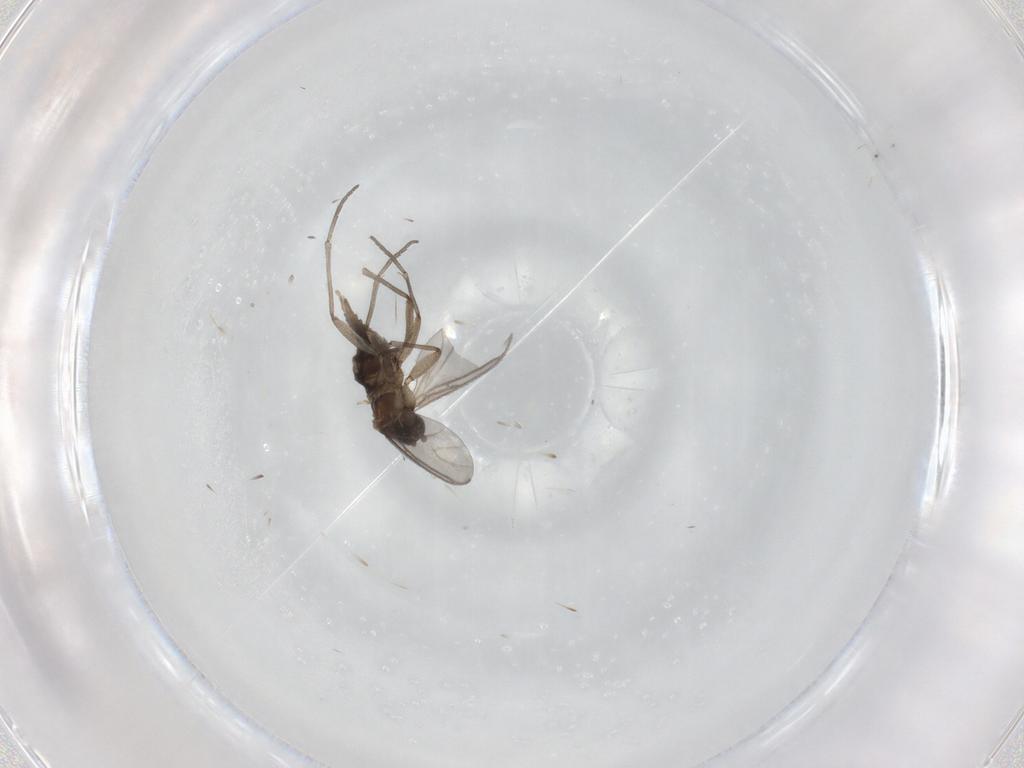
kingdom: Animalia
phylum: Arthropoda
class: Insecta
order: Diptera
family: Sciaridae
